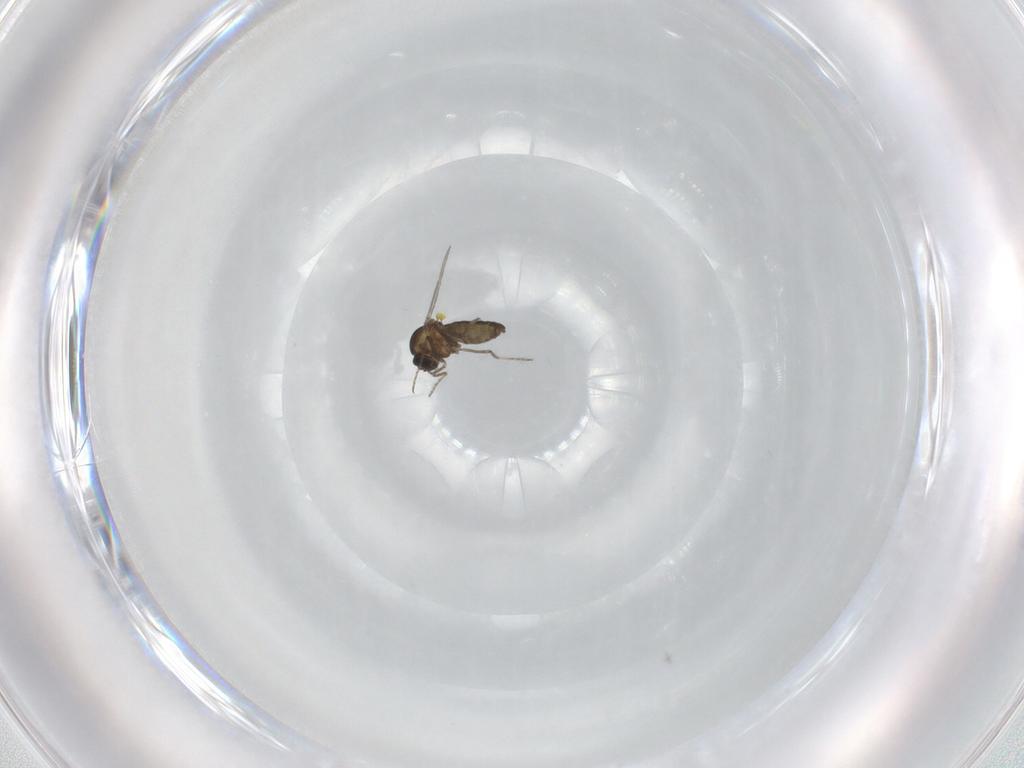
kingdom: Animalia
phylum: Arthropoda
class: Insecta
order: Diptera
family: Ceratopogonidae
